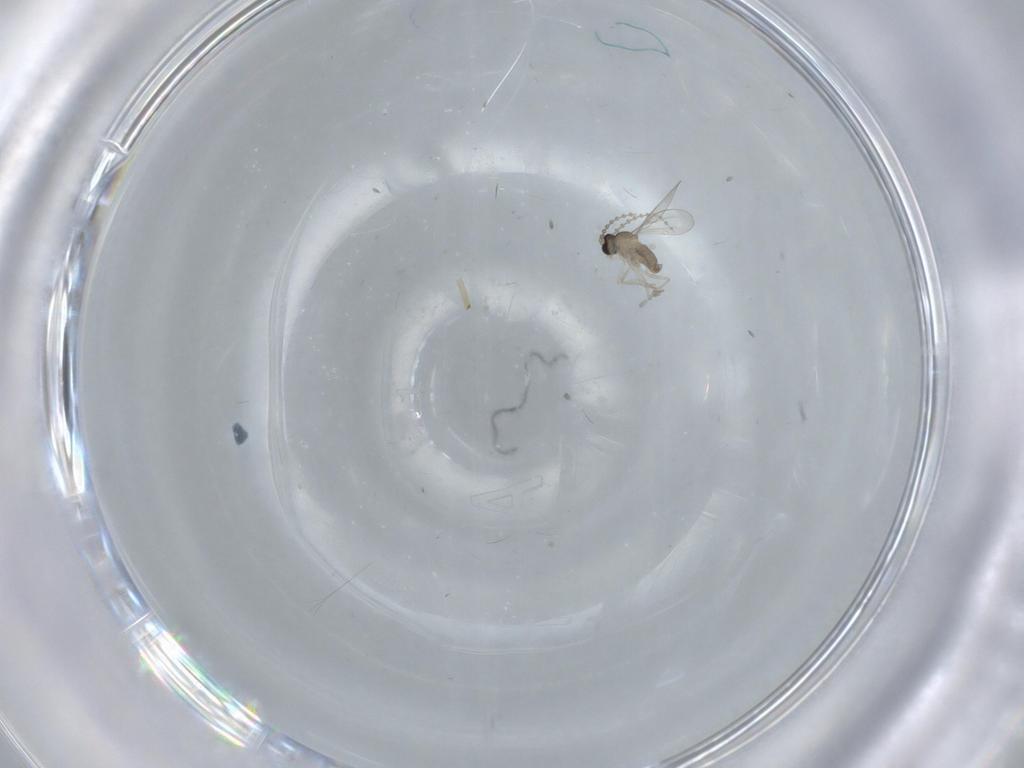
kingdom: Animalia
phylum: Arthropoda
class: Insecta
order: Diptera
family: Cecidomyiidae
